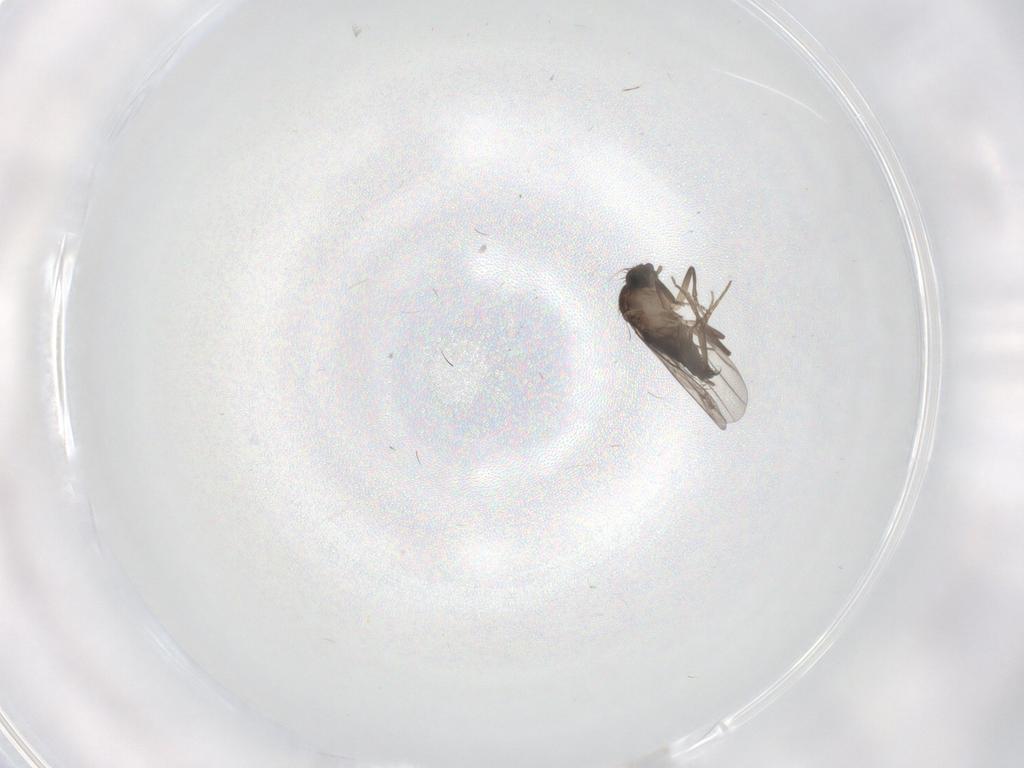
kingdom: Animalia
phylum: Arthropoda
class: Insecta
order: Diptera
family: Phoridae
